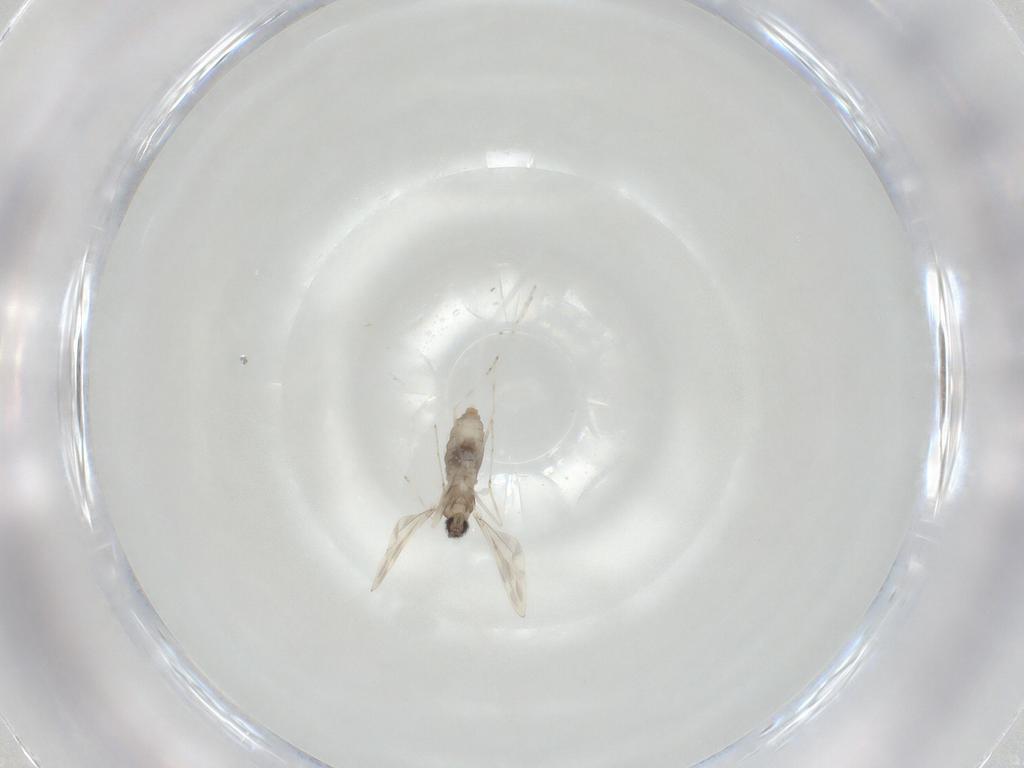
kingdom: Animalia
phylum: Arthropoda
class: Insecta
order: Diptera
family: Cecidomyiidae
